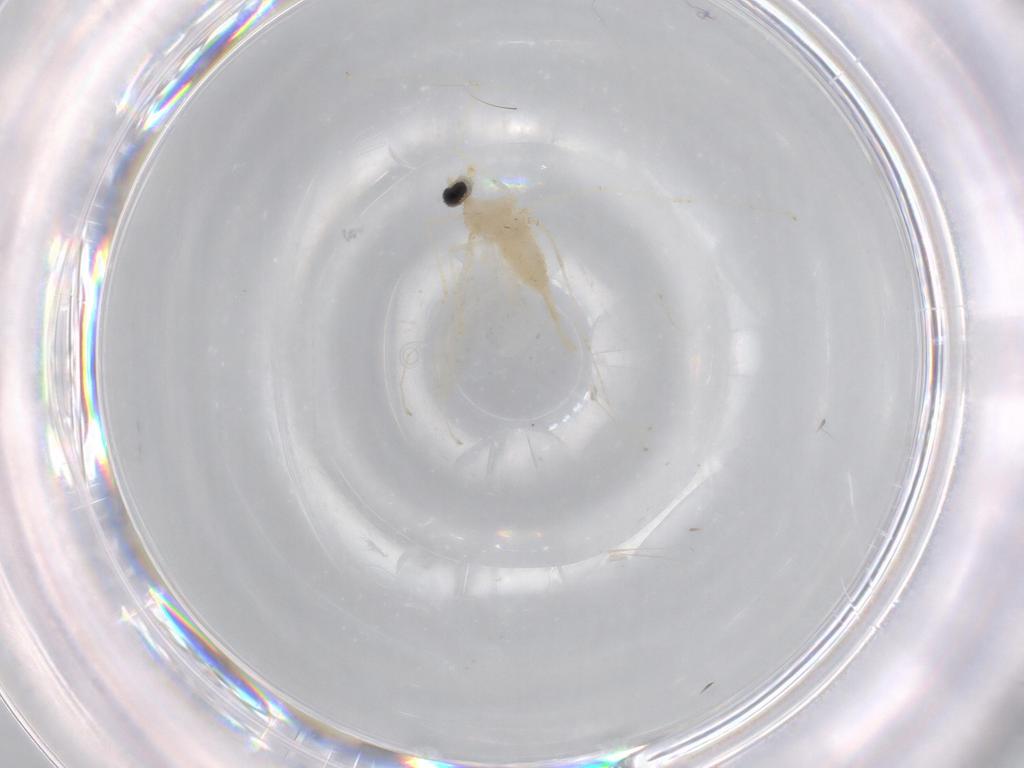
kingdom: Animalia
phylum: Arthropoda
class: Insecta
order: Diptera
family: Agromyzidae
